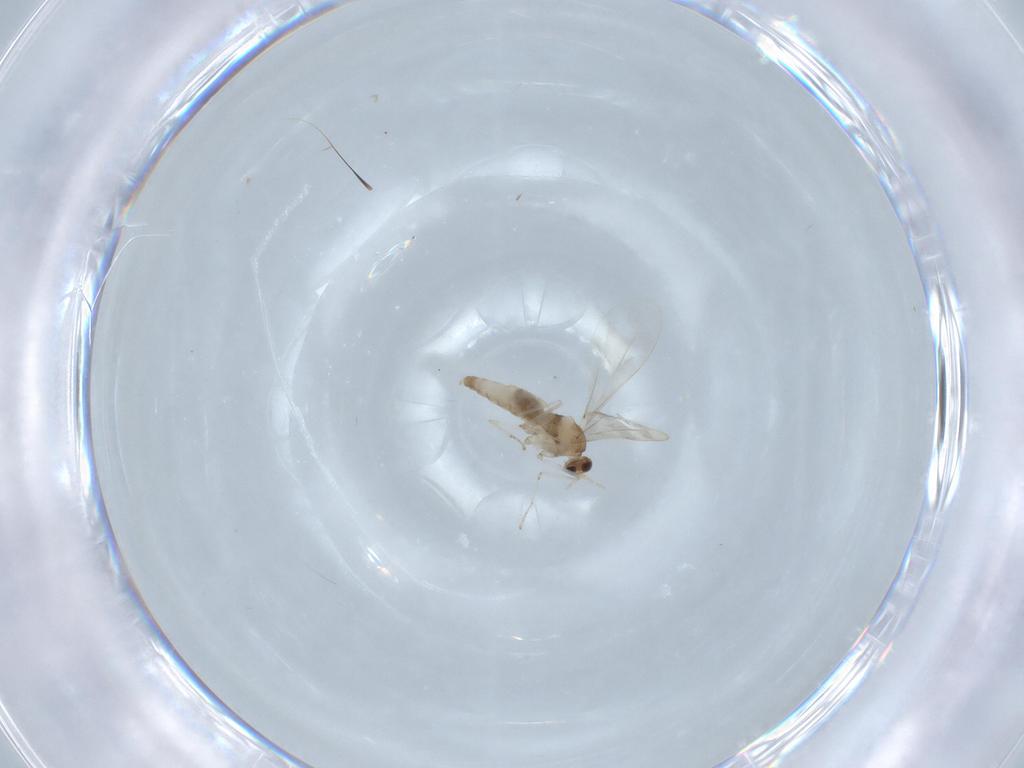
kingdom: Animalia
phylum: Arthropoda
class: Insecta
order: Diptera
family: Cecidomyiidae
